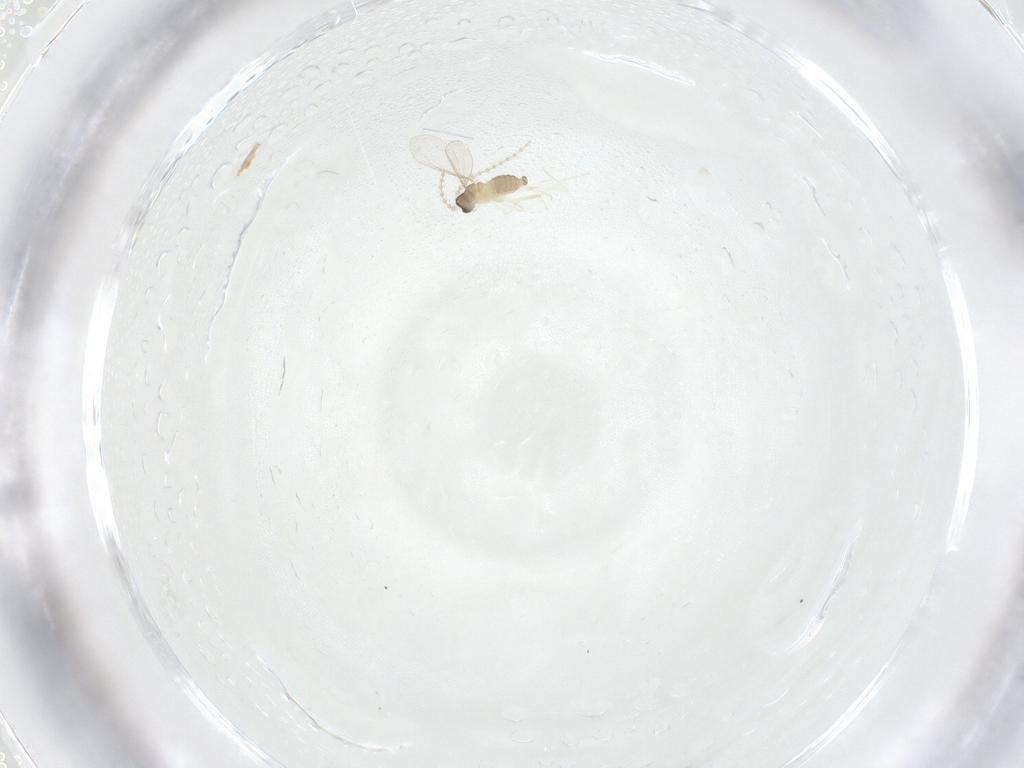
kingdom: Animalia
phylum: Arthropoda
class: Insecta
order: Diptera
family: Cecidomyiidae
